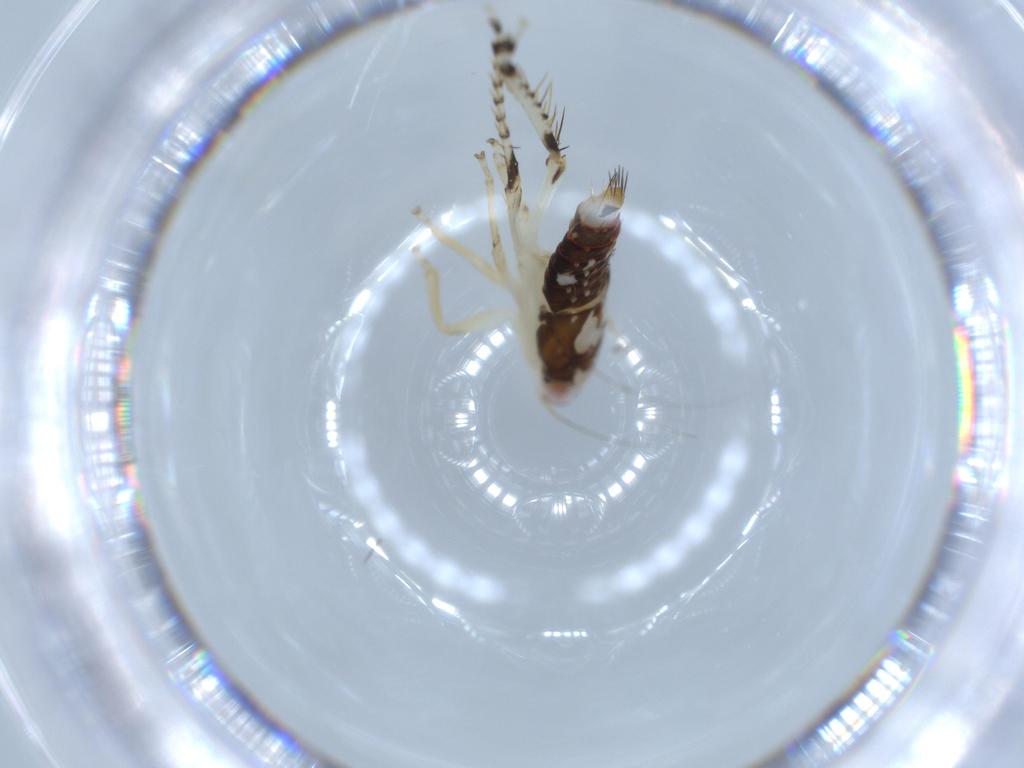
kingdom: Animalia
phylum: Arthropoda
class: Insecta
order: Hemiptera
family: Cicadellidae
